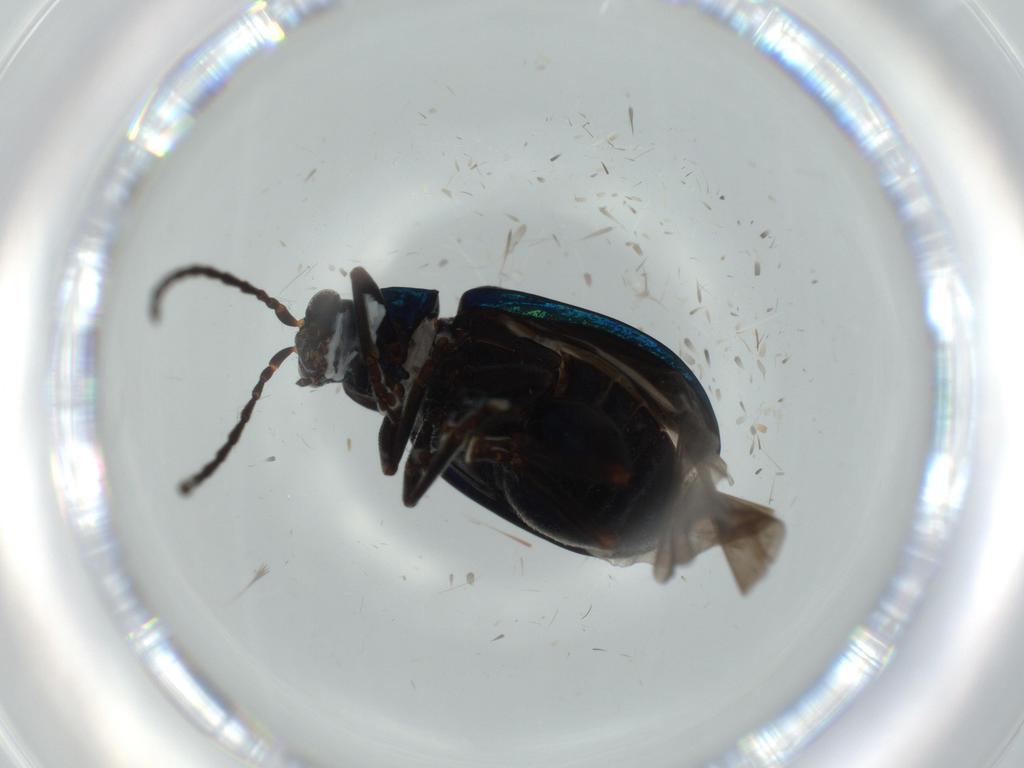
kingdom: Animalia
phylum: Arthropoda
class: Insecta
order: Coleoptera
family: Chrysomelidae
